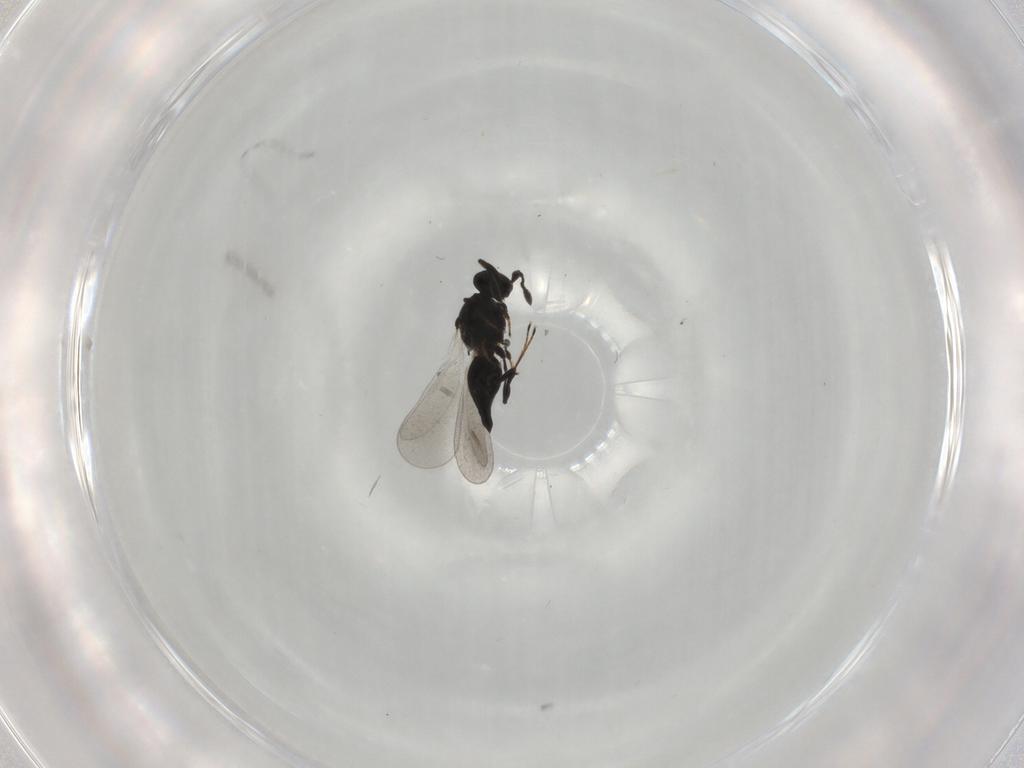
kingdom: Animalia
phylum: Arthropoda
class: Insecta
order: Hymenoptera
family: Platygastridae
